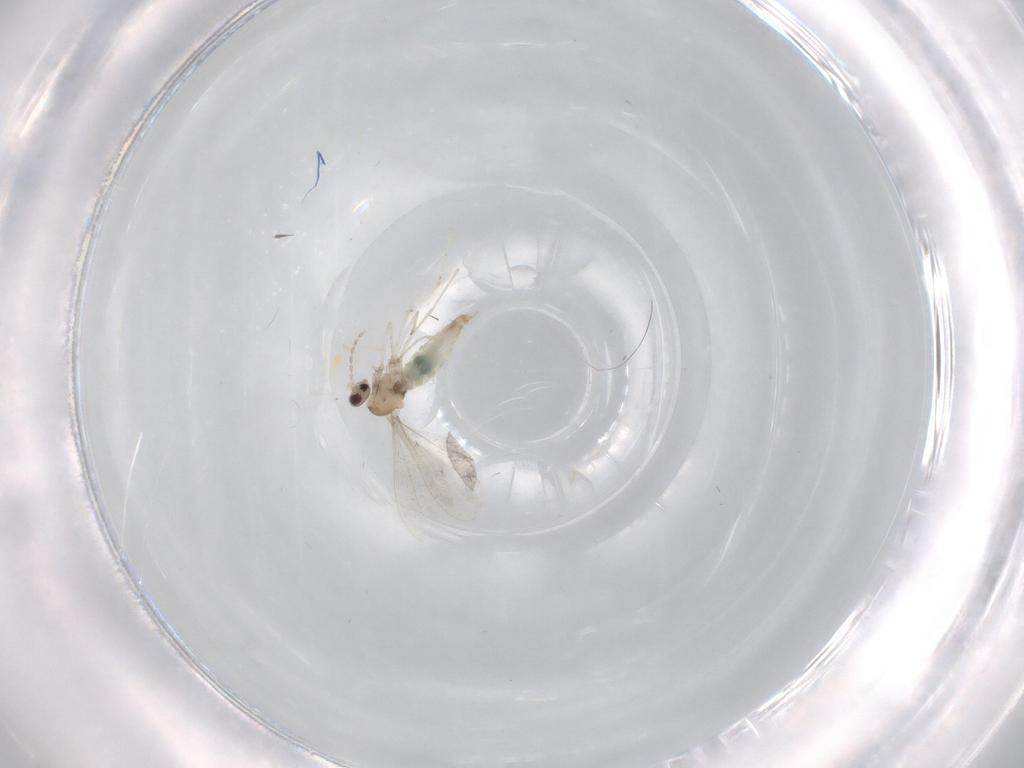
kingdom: Animalia
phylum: Arthropoda
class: Insecta
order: Diptera
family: Cecidomyiidae
